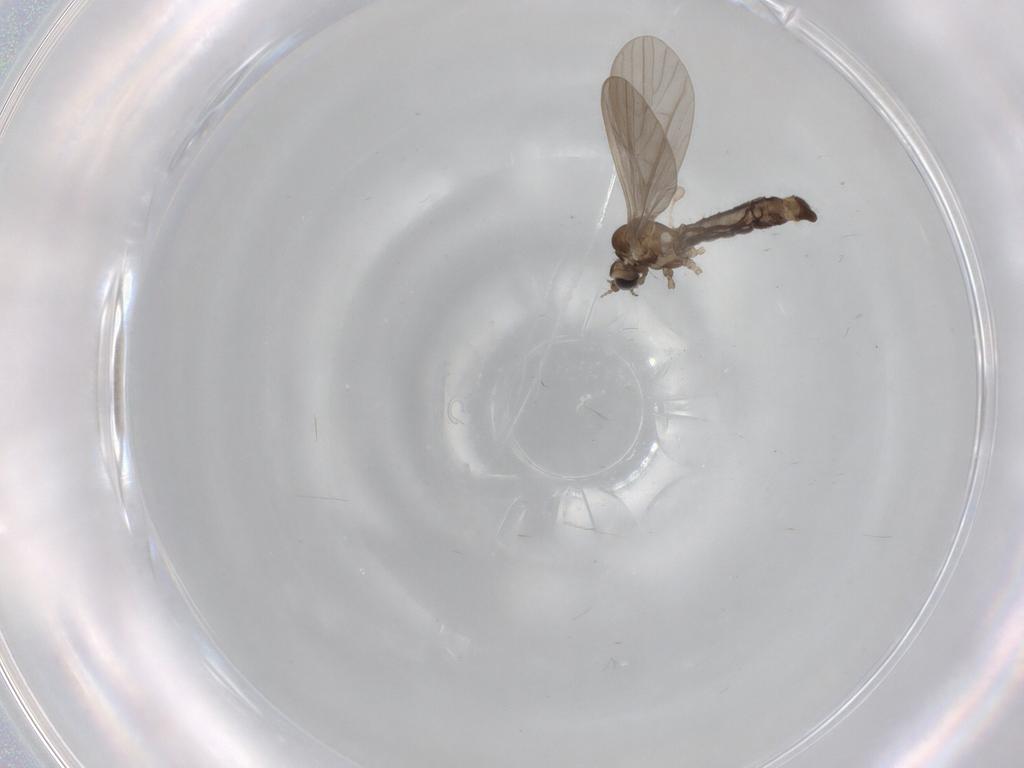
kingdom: Animalia
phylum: Arthropoda
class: Insecta
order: Diptera
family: Limoniidae
